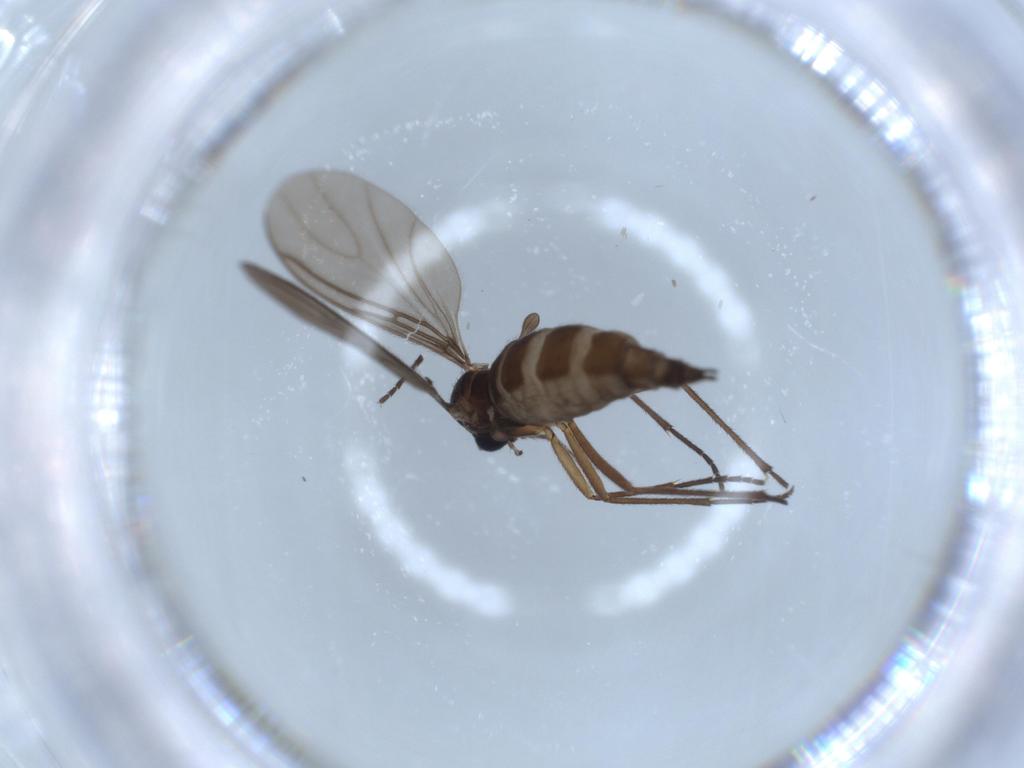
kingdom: Animalia
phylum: Arthropoda
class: Insecta
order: Diptera
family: Sciaridae
